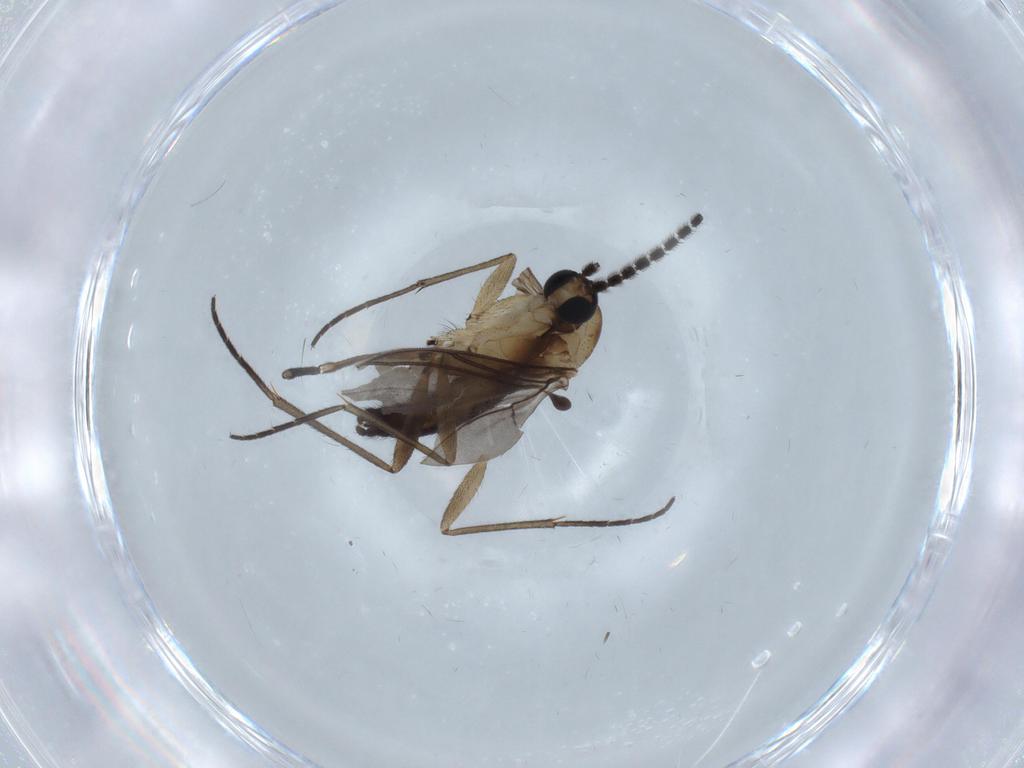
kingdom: Animalia
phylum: Arthropoda
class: Insecta
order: Diptera
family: Sciaridae
